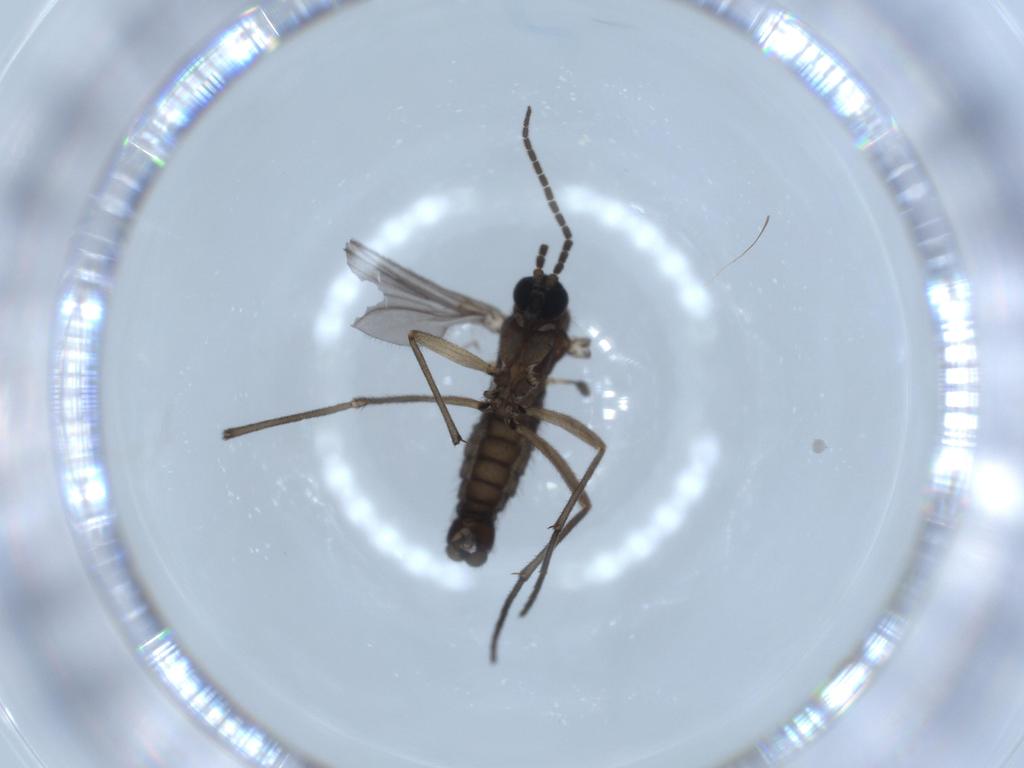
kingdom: Animalia
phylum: Arthropoda
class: Insecta
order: Diptera
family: Sciaridae
